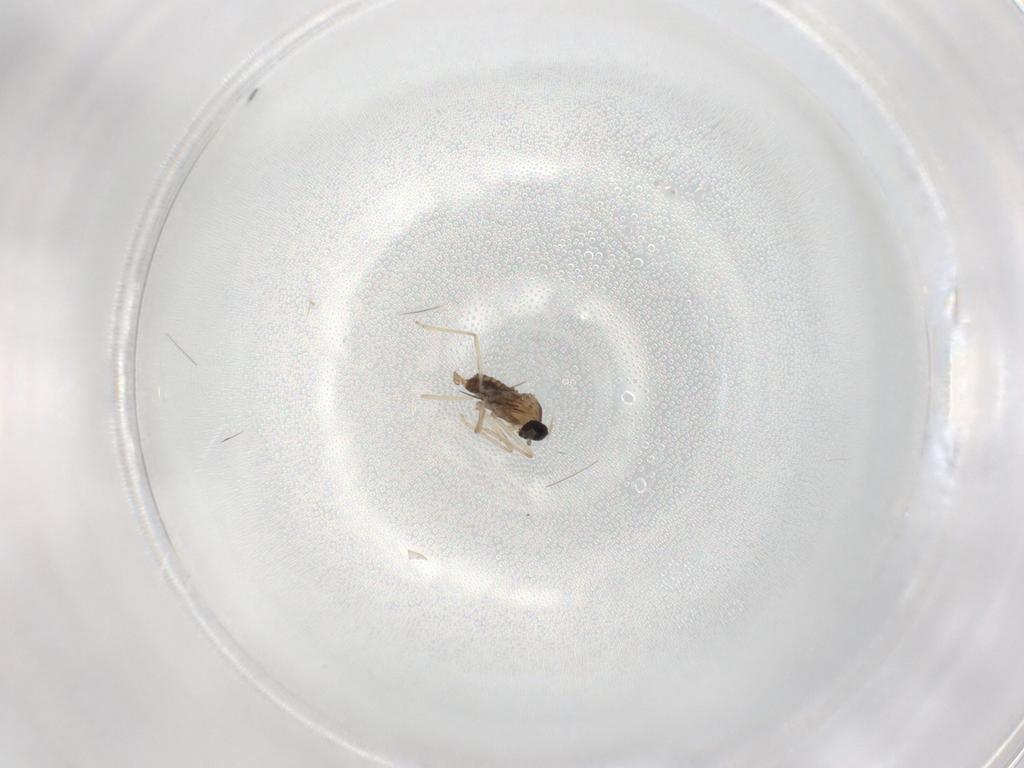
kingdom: Animalia
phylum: Arthropoda
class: Insecta
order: Diptera
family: Cecidomyiidae
